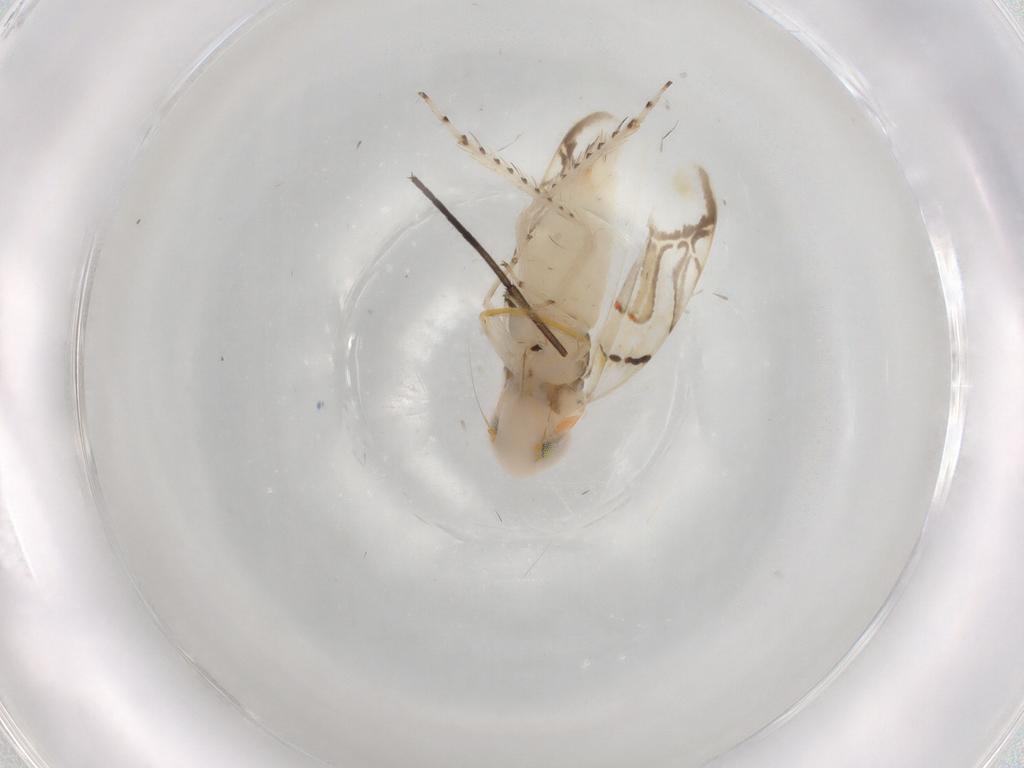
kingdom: Animalia
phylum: Arthropoda
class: Insecta
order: Hemiptera
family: Cicadellidae
